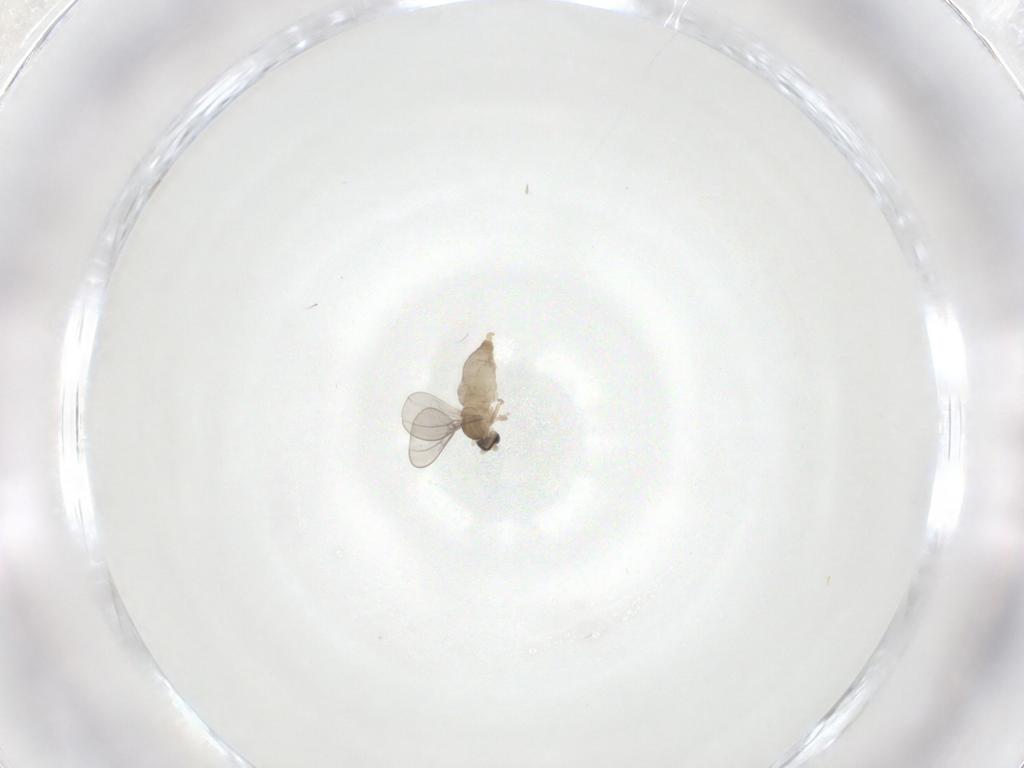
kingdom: Animalia
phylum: Arthropoda
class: Insecta
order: Diptera
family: Cecidomyiidae
